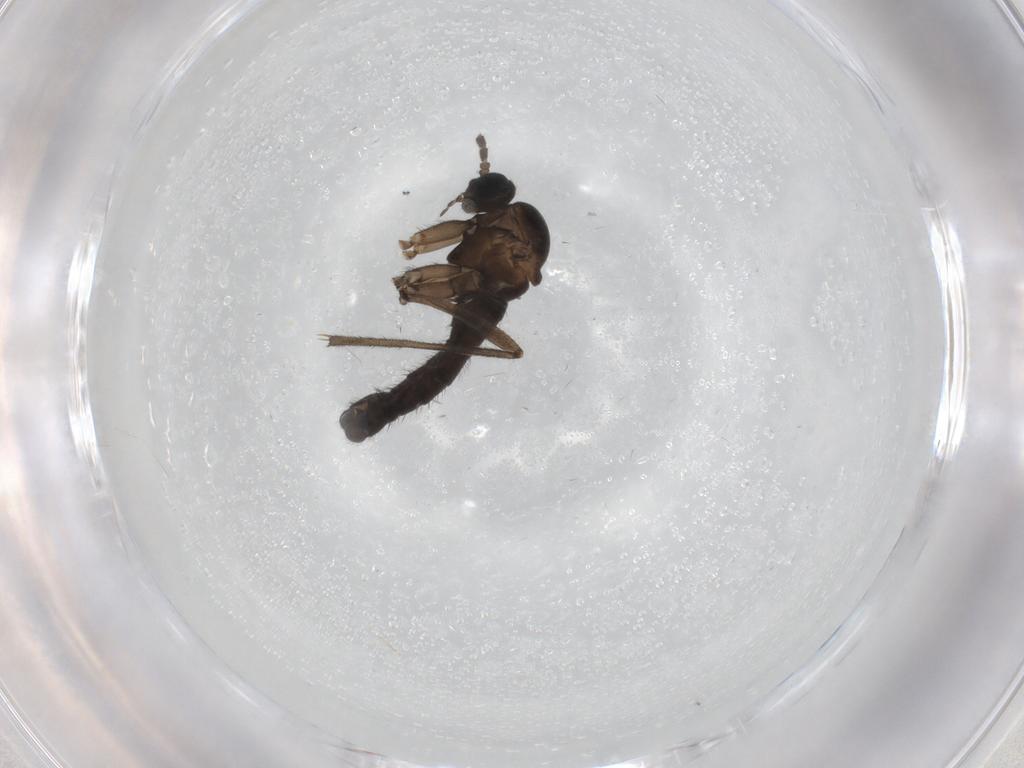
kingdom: Animalia
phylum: Arthropoda
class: Insecta
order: Diptera
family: Sciaridae
